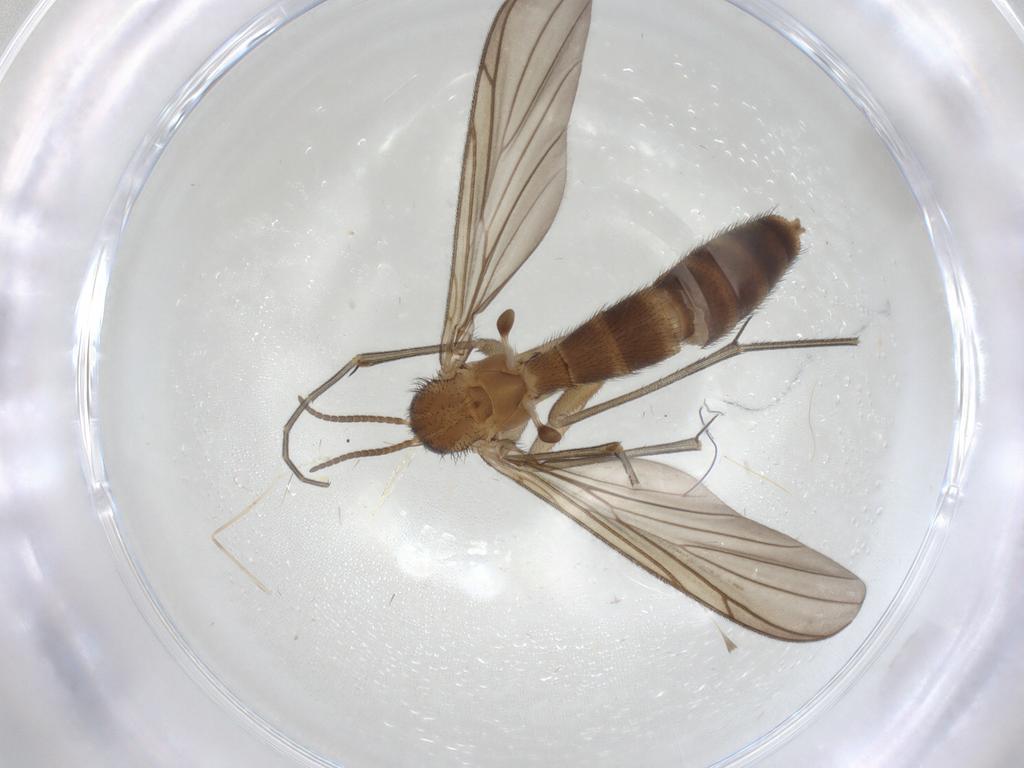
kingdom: Animalia
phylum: Arthropoda
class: Insecta
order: Diptera
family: Keroplatidae
